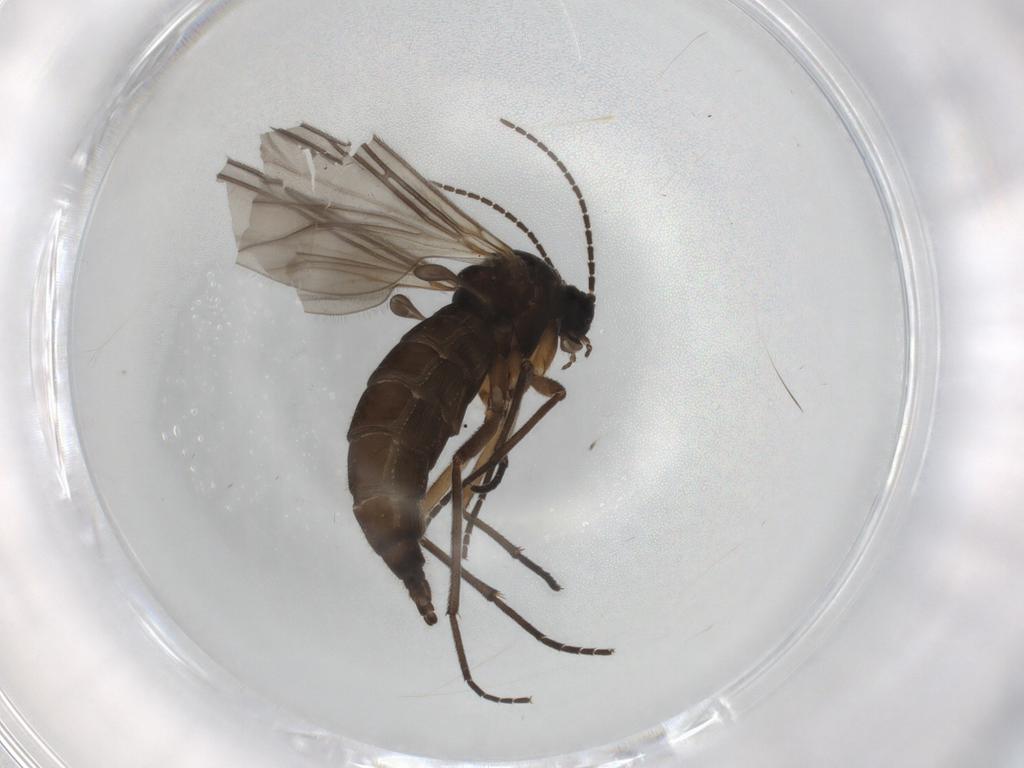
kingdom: Animalia
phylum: Arthropoda
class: Insecta
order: Diptera
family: Sciaridae
